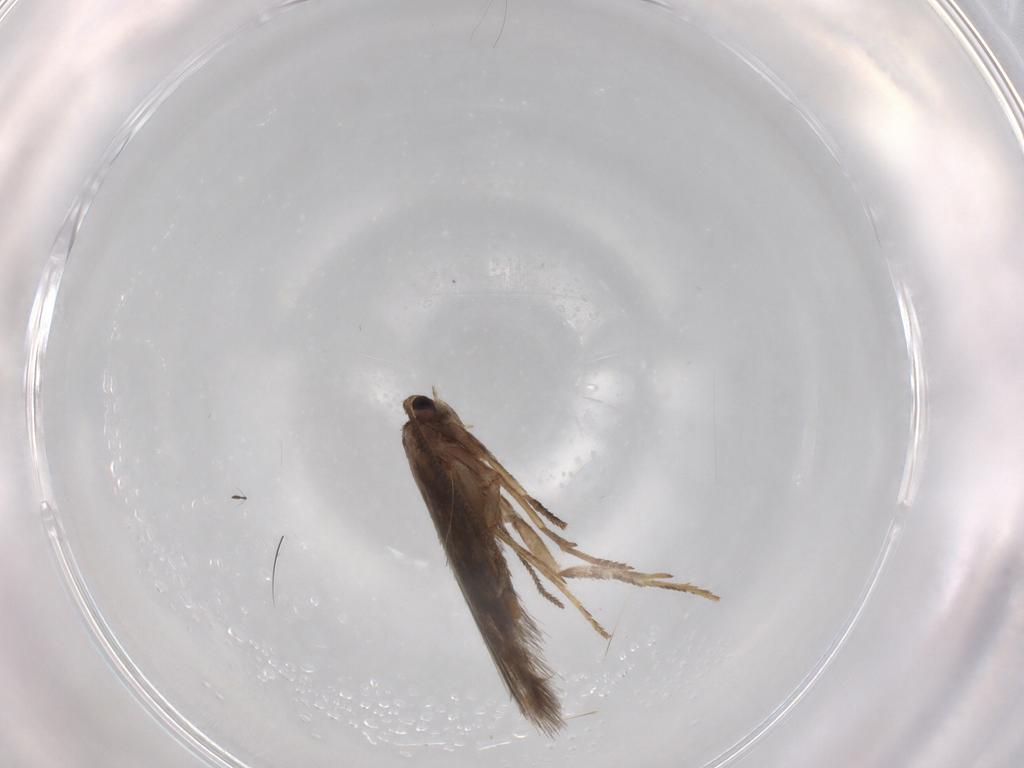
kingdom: Animalia
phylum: Arthropoda
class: Insecta
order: Lepidoptera
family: Nepticulidae
